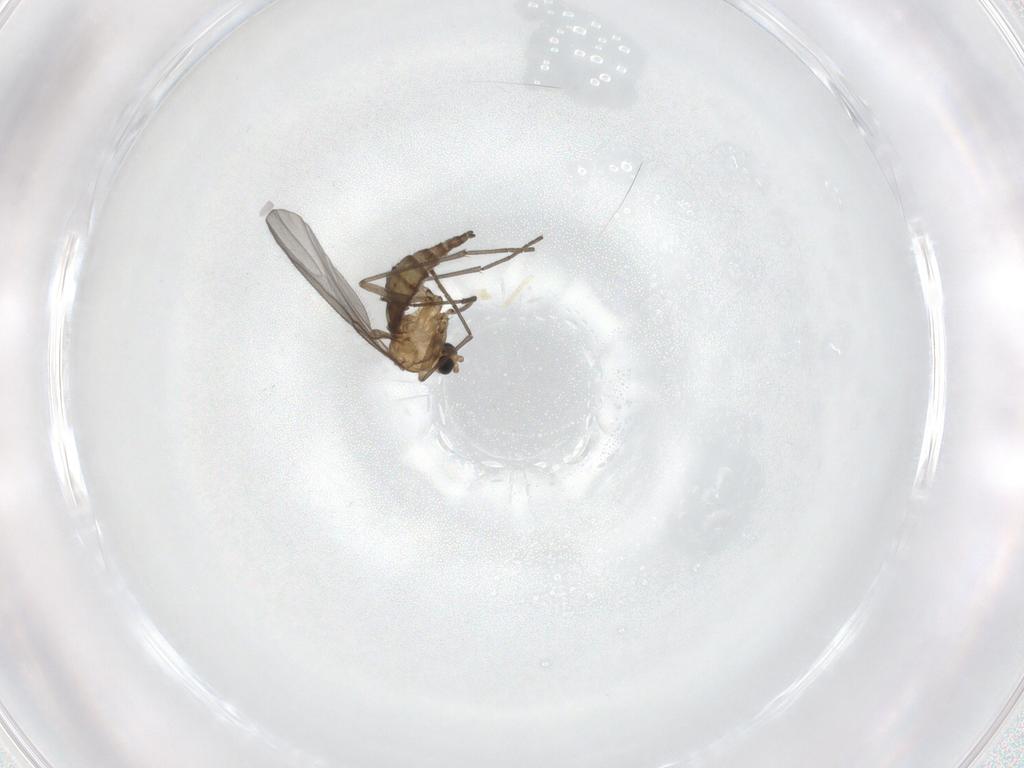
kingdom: Animalia
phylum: Arthropoda
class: Insecta
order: Diptera
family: Sciaridae
